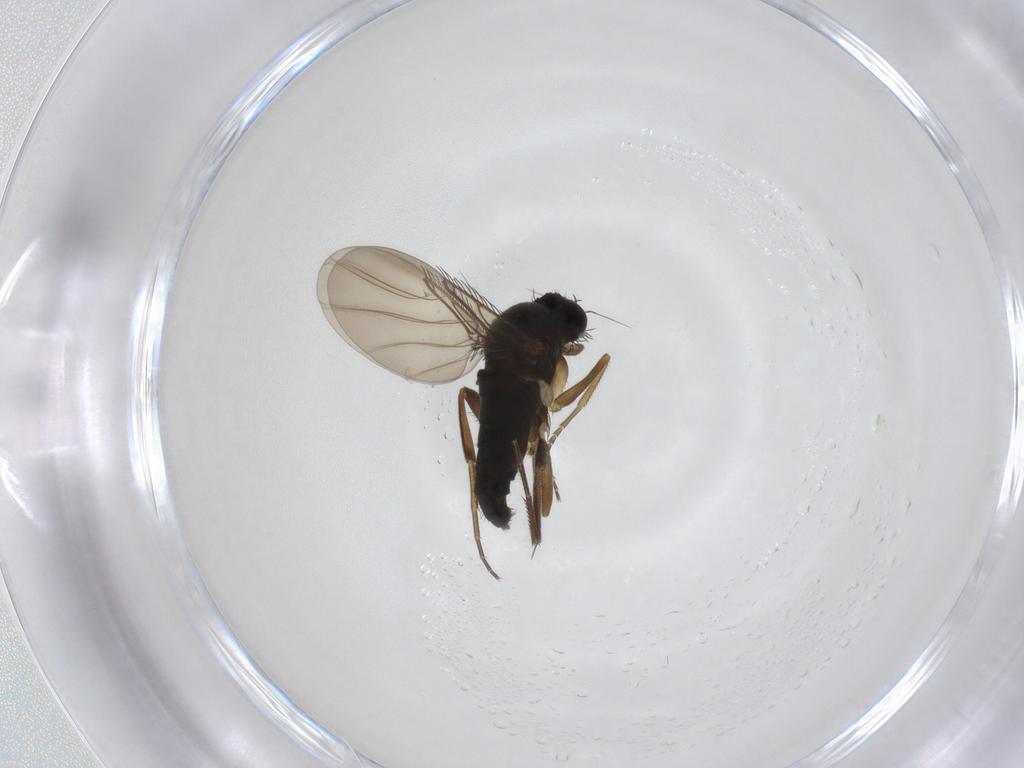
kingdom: Animalia
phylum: Arthropoda
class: Insecta
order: Diptera
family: Phoridae
